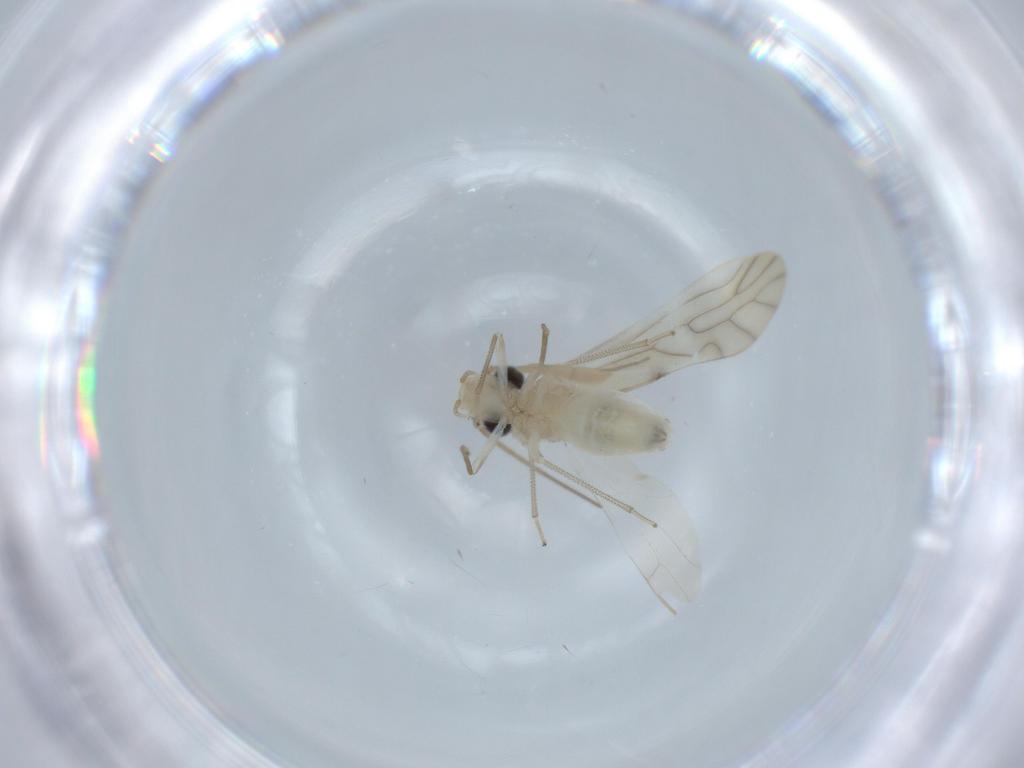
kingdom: Animalia
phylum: Arthropoda
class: Insecta
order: Psocodea
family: Caeciliusidae
